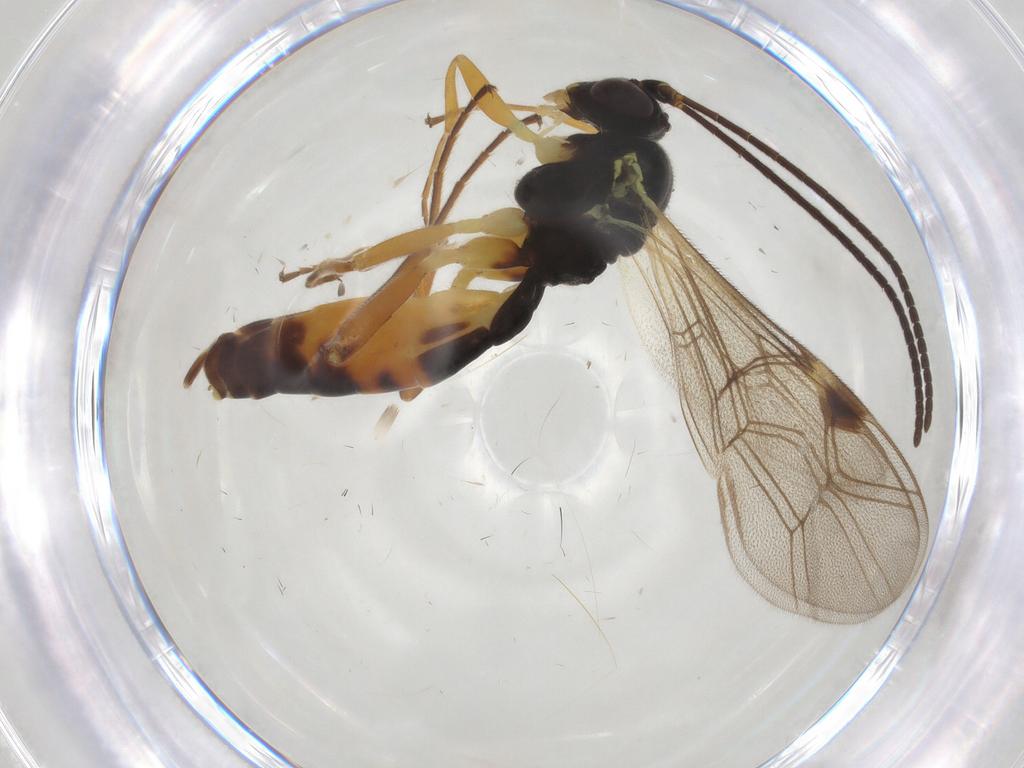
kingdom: Animalia
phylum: Arthropoda
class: Insecta
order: Hymenoptera
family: Ichneumonidae
